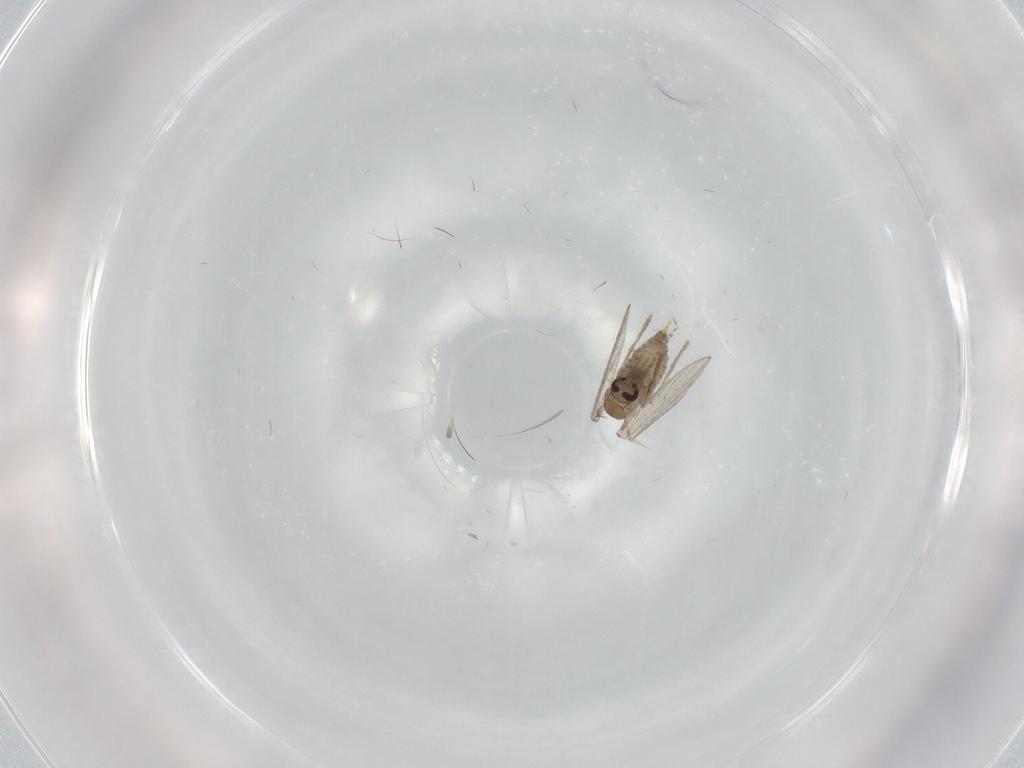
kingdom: Animalia
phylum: Arthropoda
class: Insecta
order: Diptera
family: Psychodidae
